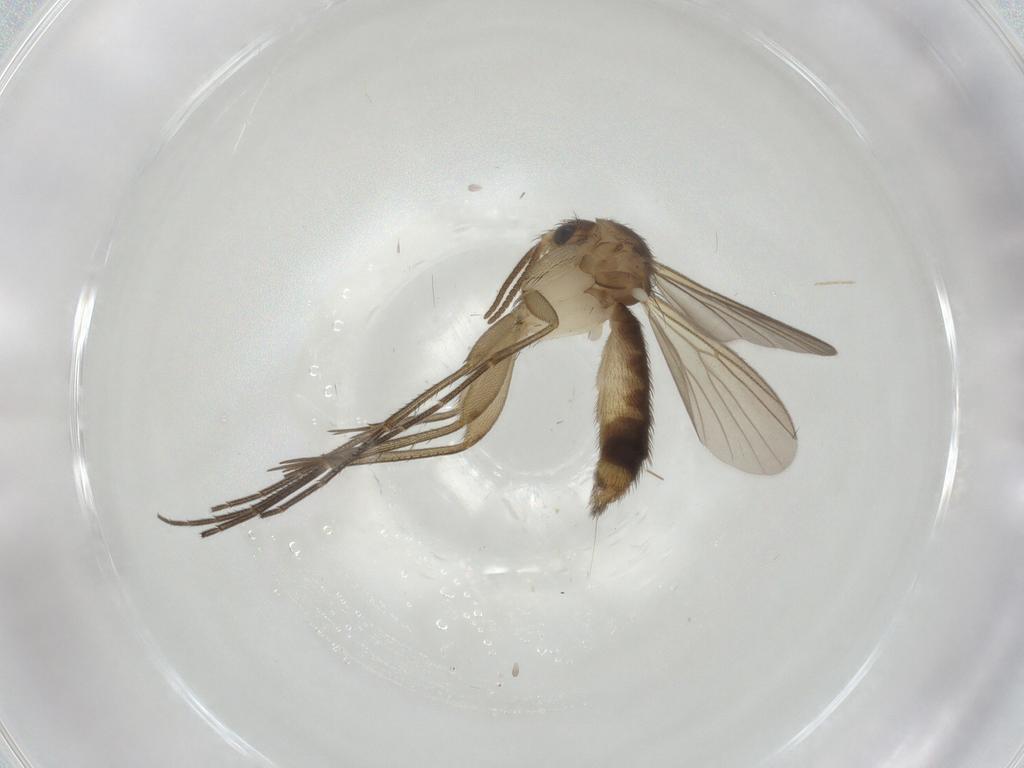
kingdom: Animalia
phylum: Arthropoda
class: Insecta
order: Diptera
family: Mycetophilidae
